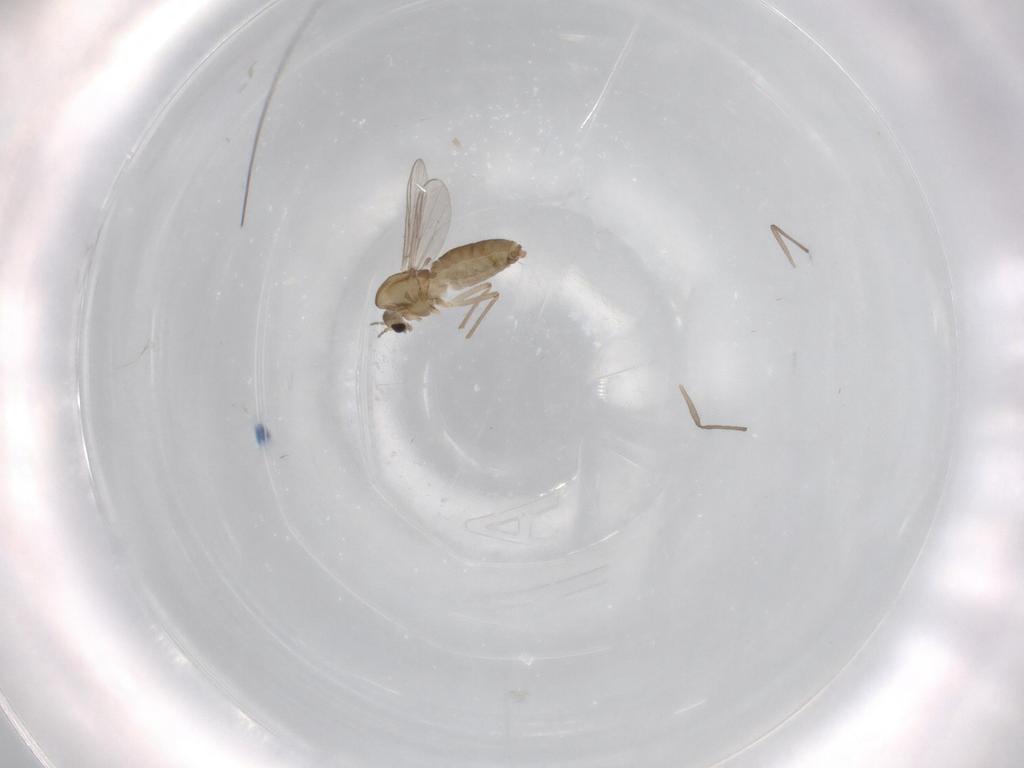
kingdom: Animalia
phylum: Arthropoda
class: Insecta
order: Diptera
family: Chironomidae
